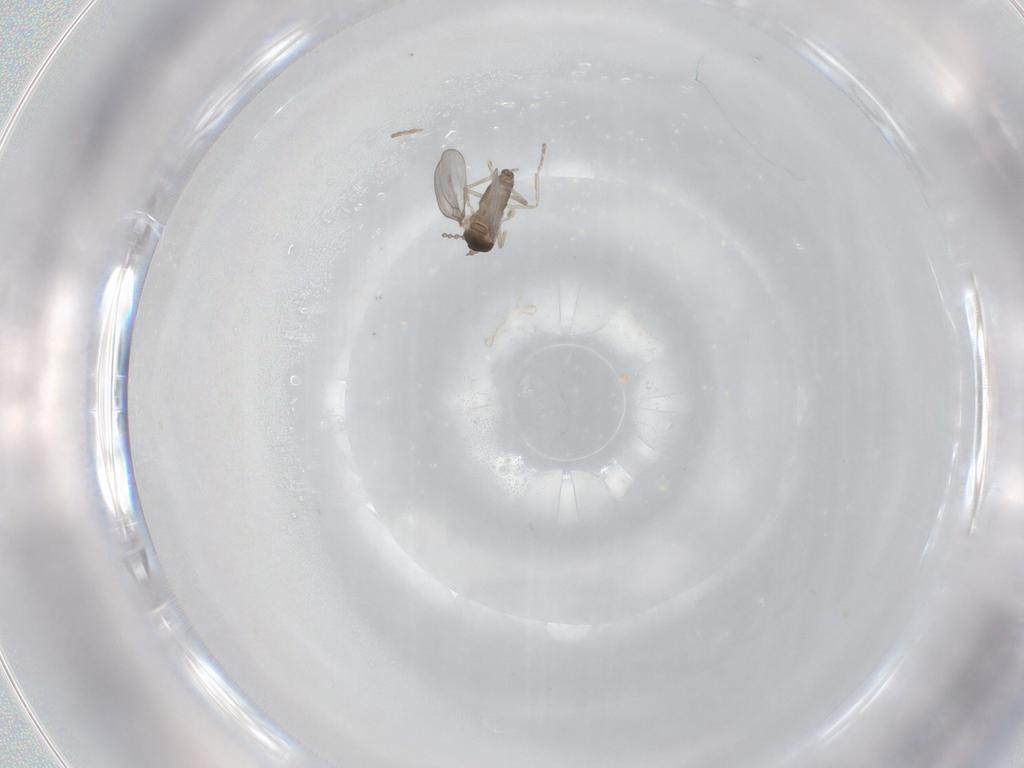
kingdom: Animalia
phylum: Arthropoda
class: Insecta
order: Diptera
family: Cecidomyiidae
